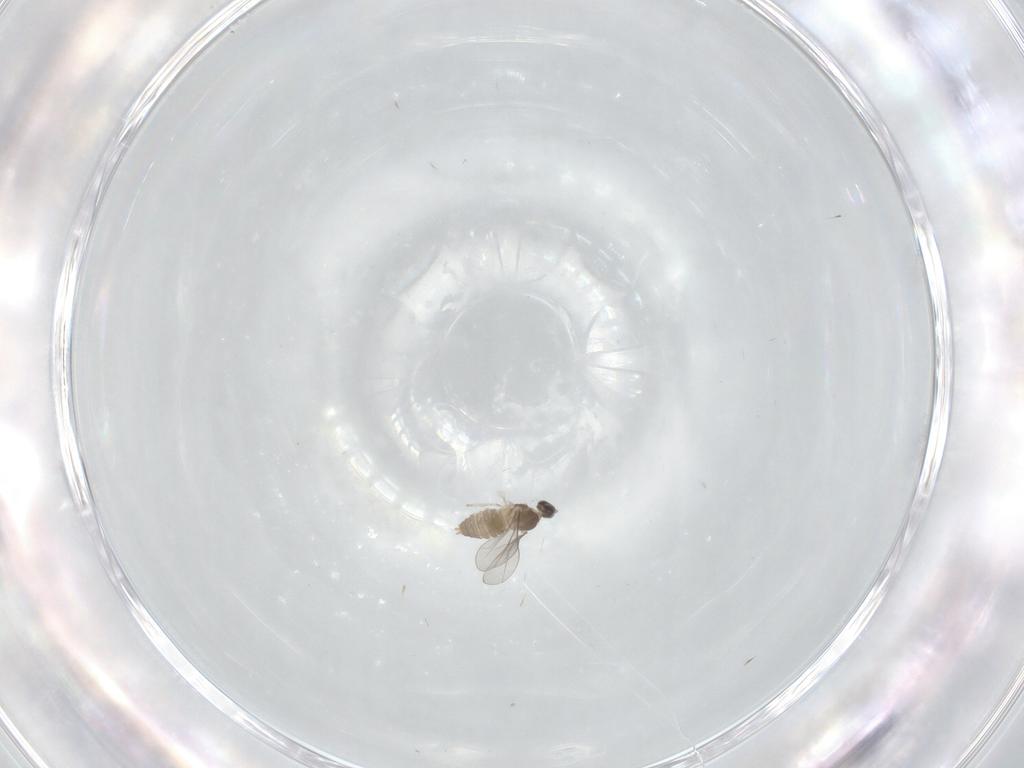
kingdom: Animalia
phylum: Arthropoda
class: Insecta
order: Diptera
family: Cecidomyiidae
